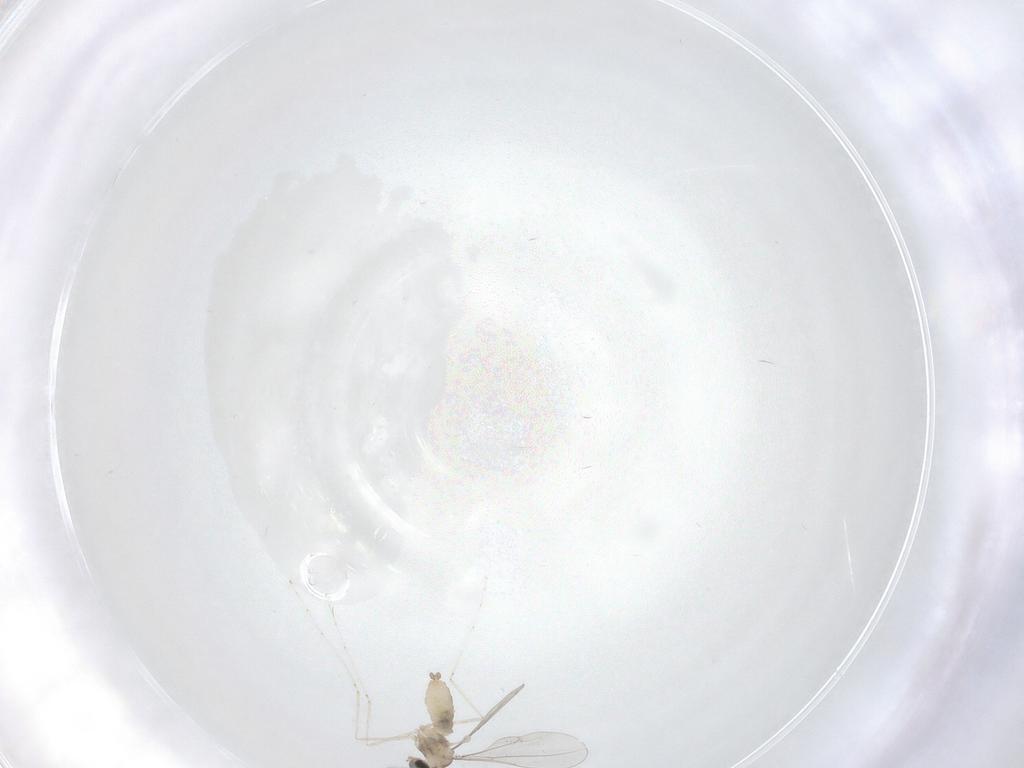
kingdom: Animalia
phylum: Arthropoda
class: Insecta
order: Diptera
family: Cecidomyiidae
